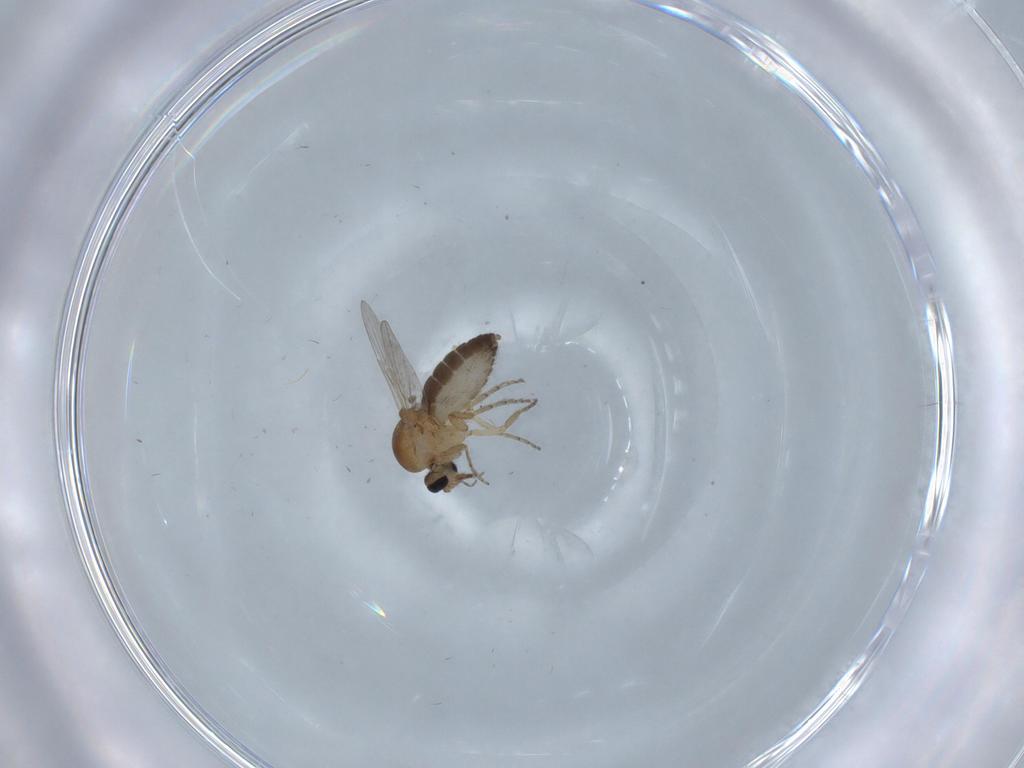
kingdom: Animalia
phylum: Arthropoda
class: Insecta
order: Diptera
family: Ceratopogonidae
